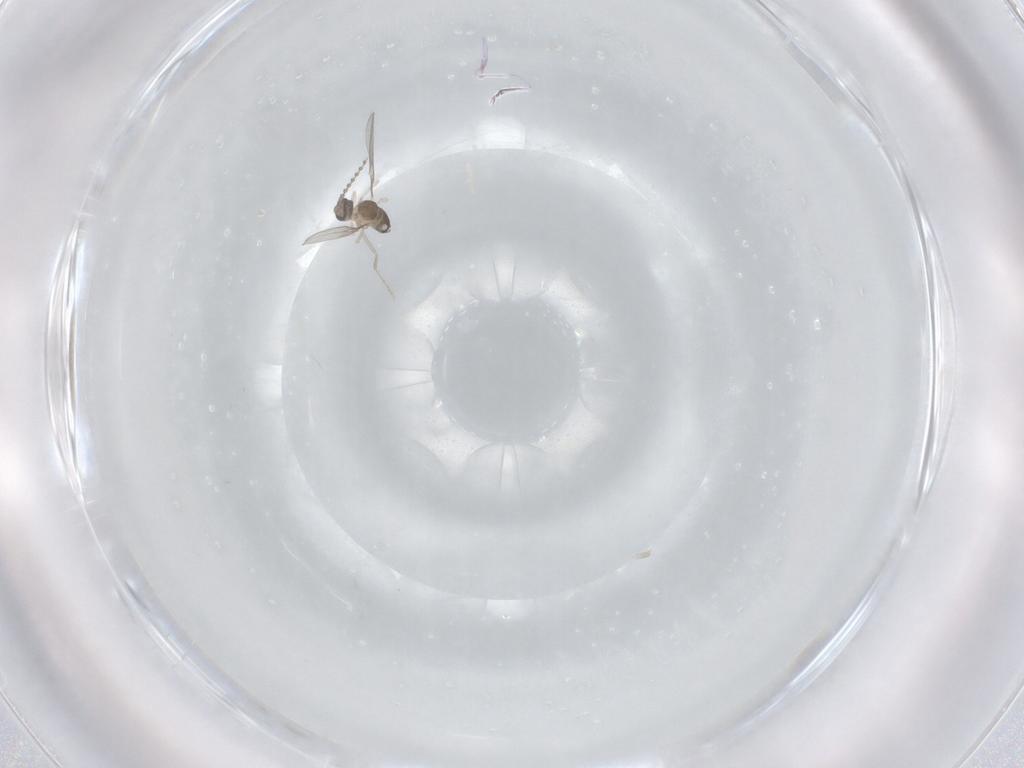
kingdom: Animalia
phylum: Arthropoda
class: Insecta
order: Diptera
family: Cecidomyiidae
